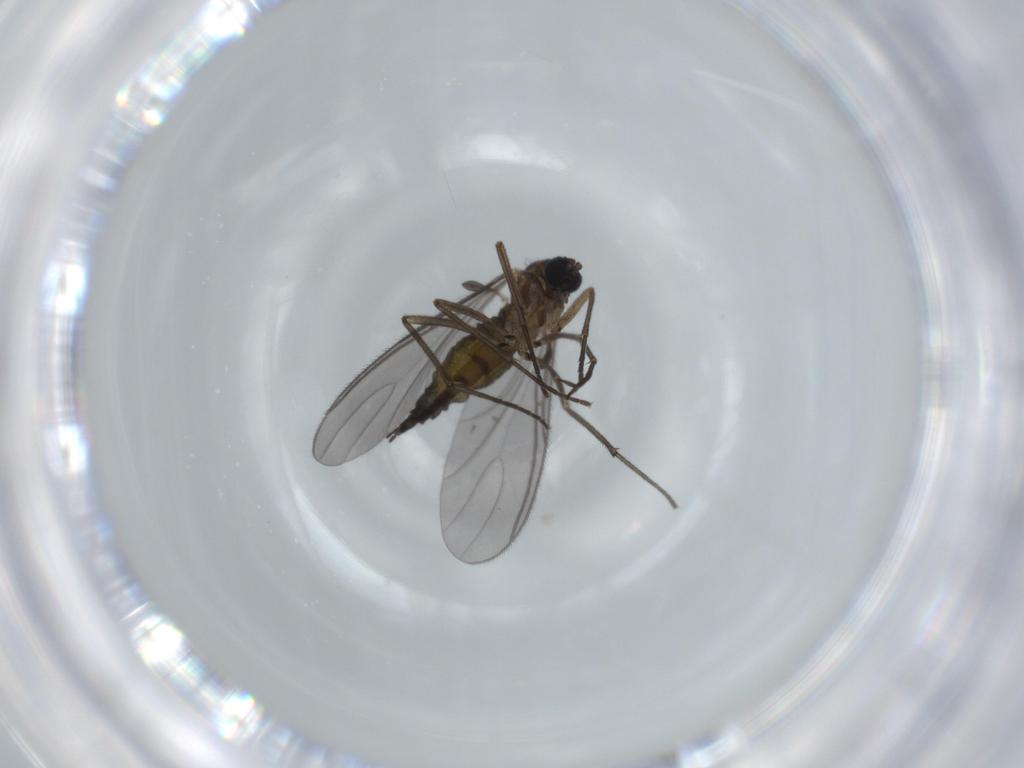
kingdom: Animalia
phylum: Arthropoda
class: Insecta
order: Diptera
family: Sciaridae
